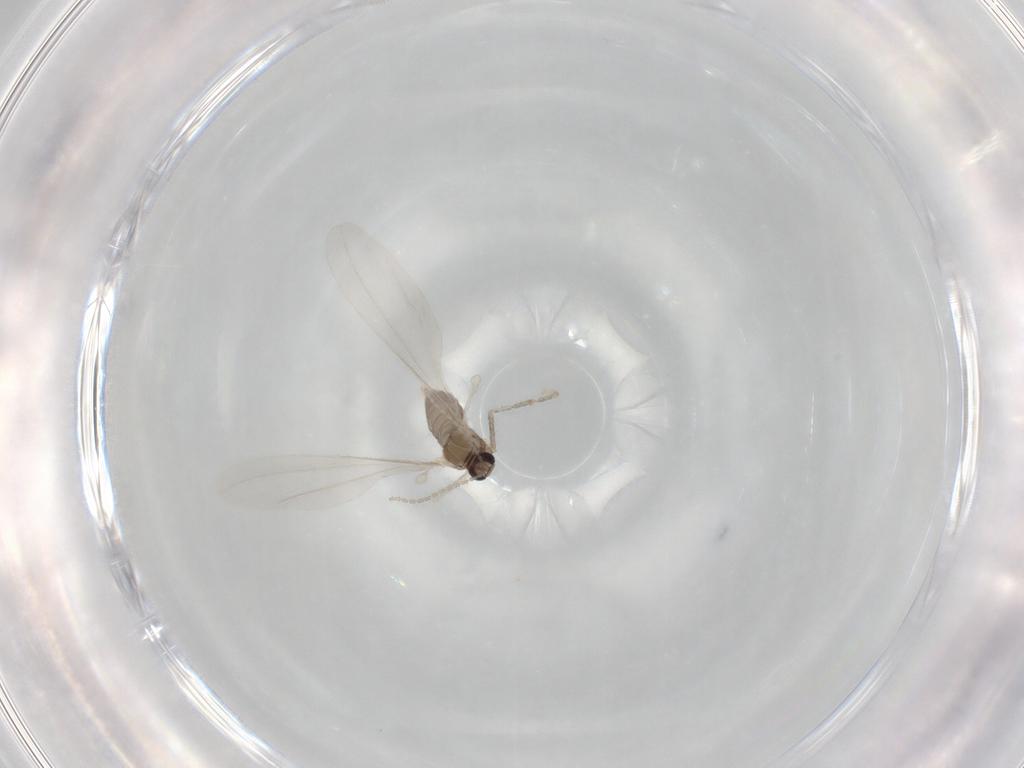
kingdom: Animalia
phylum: Arthropoda
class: Insecta
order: Diptera
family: Cecidomyiidae
